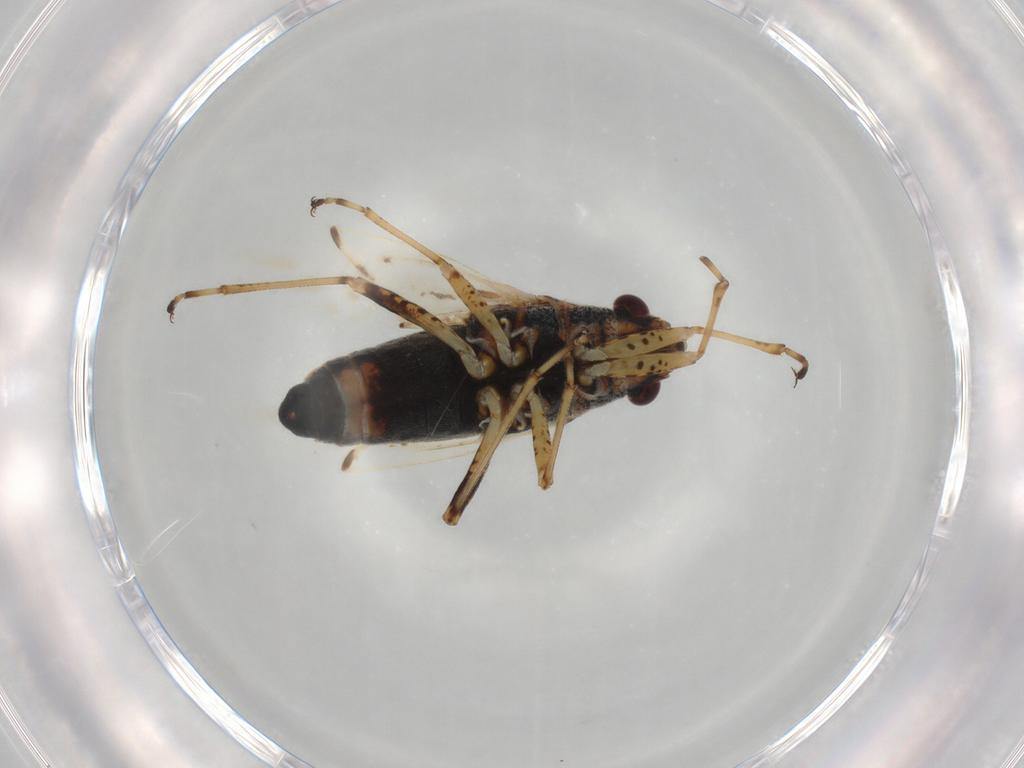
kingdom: Animalia
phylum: Arthropoda
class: Insecta
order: Hemiptera
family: Lygaeidae
